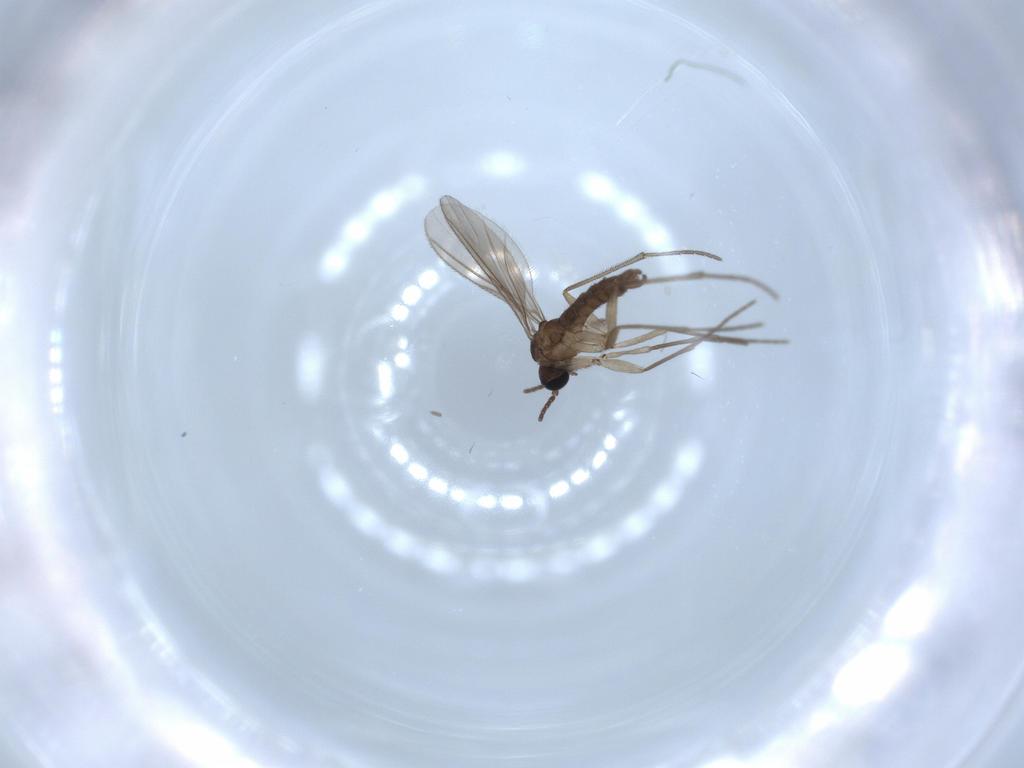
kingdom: Animalia
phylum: Arthropoda
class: Insecta
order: Diptera
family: Sciaridae
